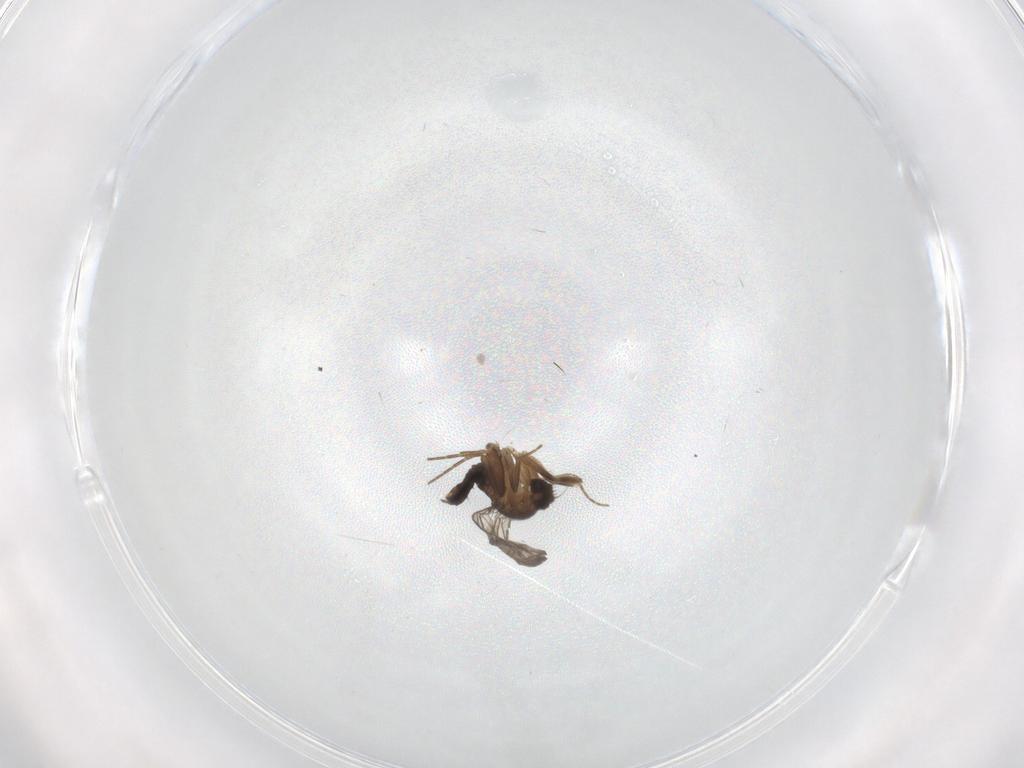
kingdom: Animalia
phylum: Arthropoda
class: Insecta
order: Diptera
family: Phoridae
